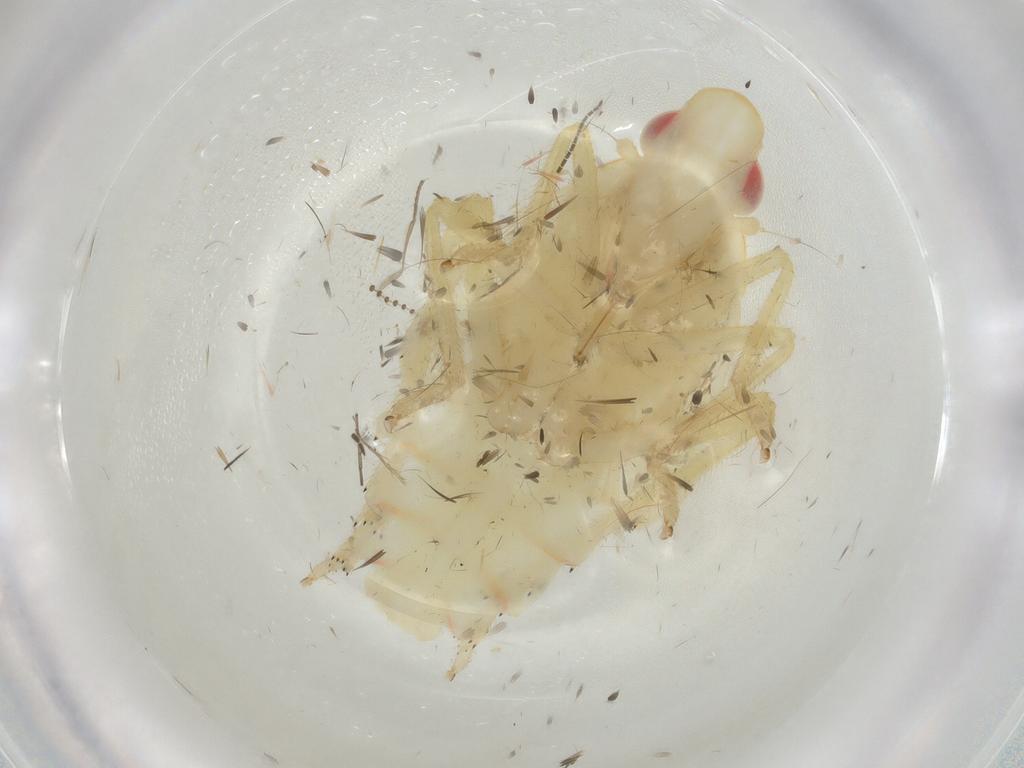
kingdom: Animalia
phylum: Arthropoda
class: Insecta
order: Hemiptera
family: Tropiduchidae
